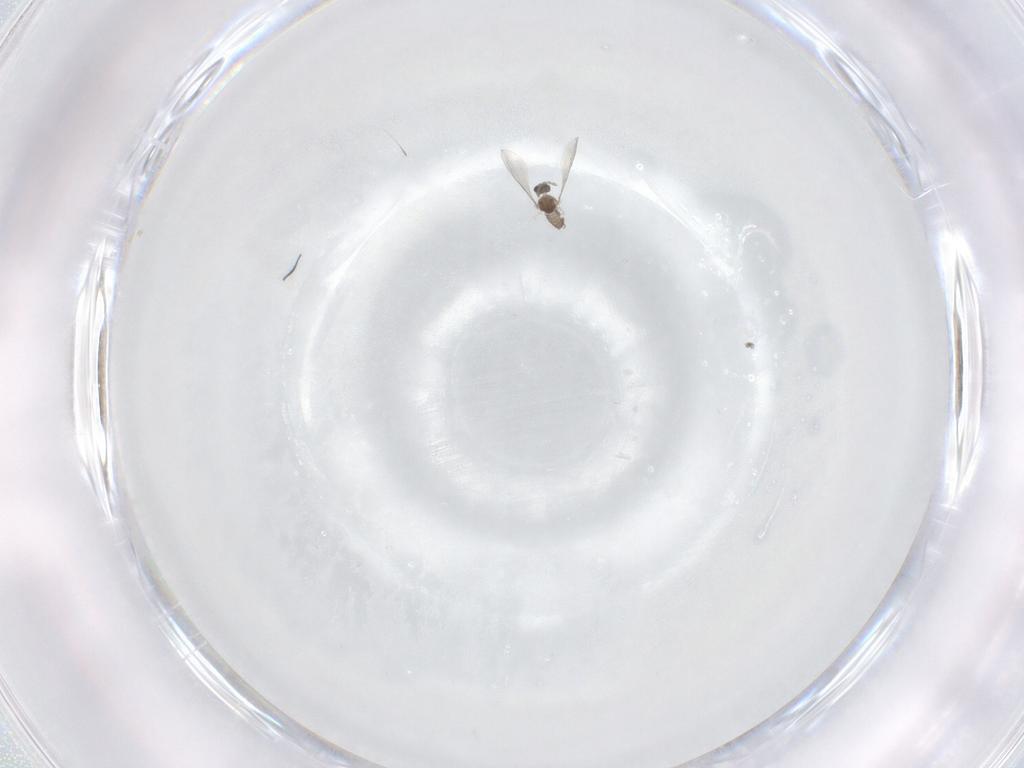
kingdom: Animalia
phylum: Arthropoda
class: Insecta
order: Diptera
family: Cecidomyiidae
